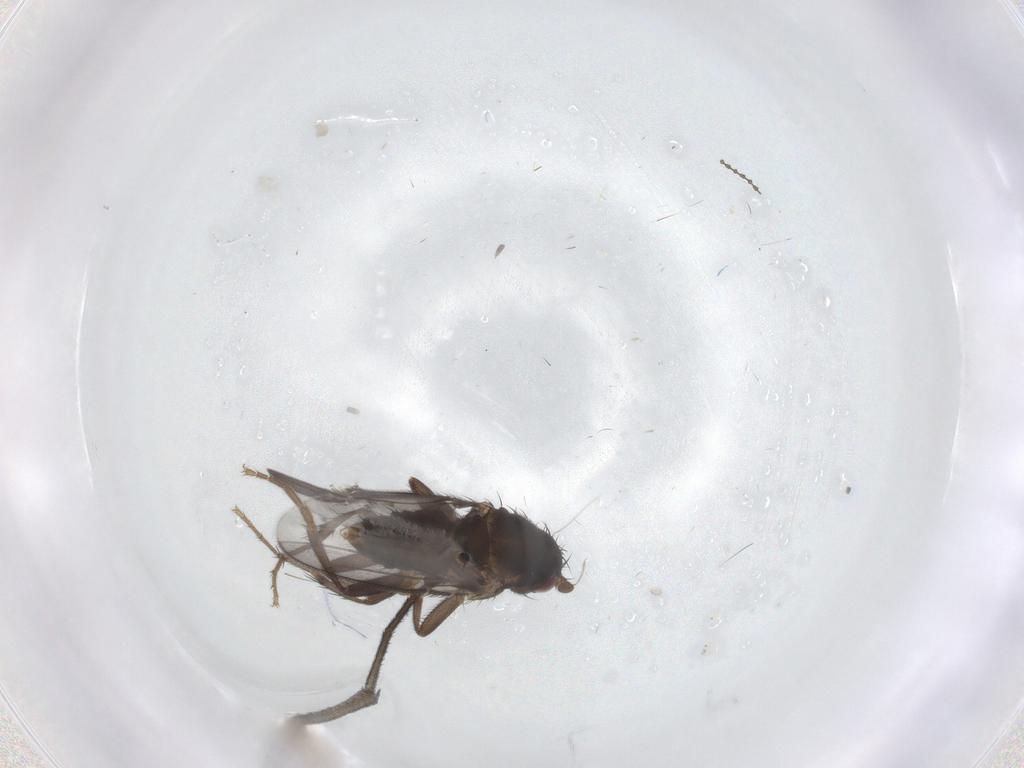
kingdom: Animalia
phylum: Arthropoda
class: Insecta
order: Diptera
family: Mycetophilidae
